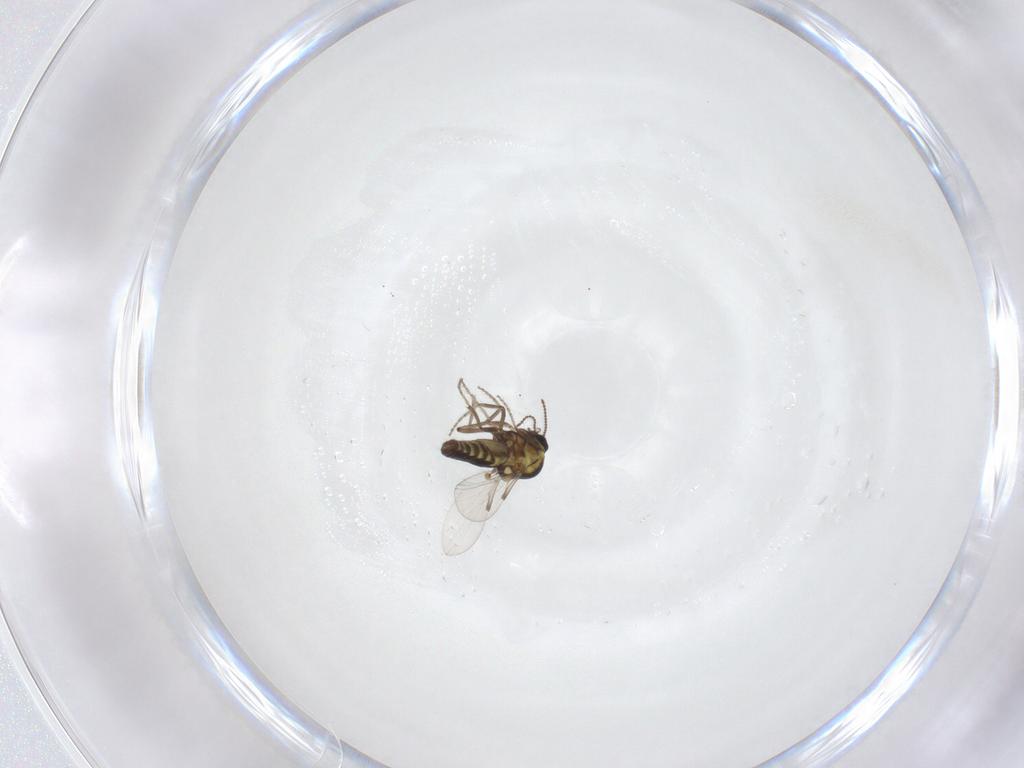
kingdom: Animalia
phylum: Arthropoda
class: Insecta
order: Diptera
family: Ceratopogonidae
